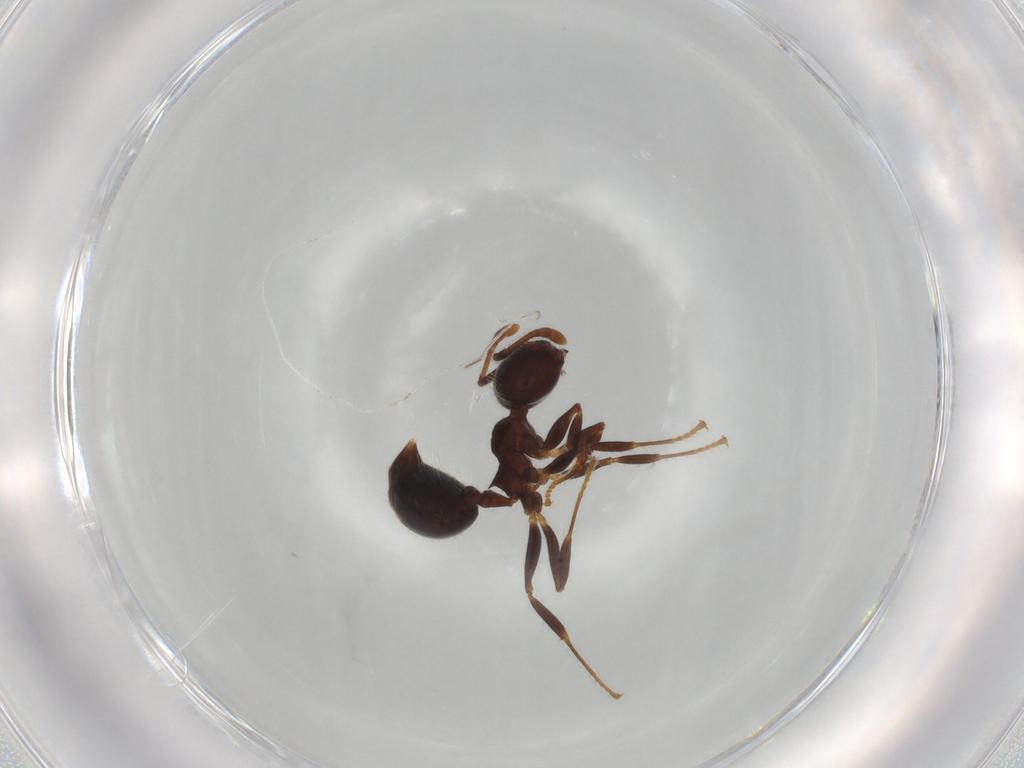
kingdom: Animalia
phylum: Arthropoda
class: Insecta
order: Hymenoptera
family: Formicidae
